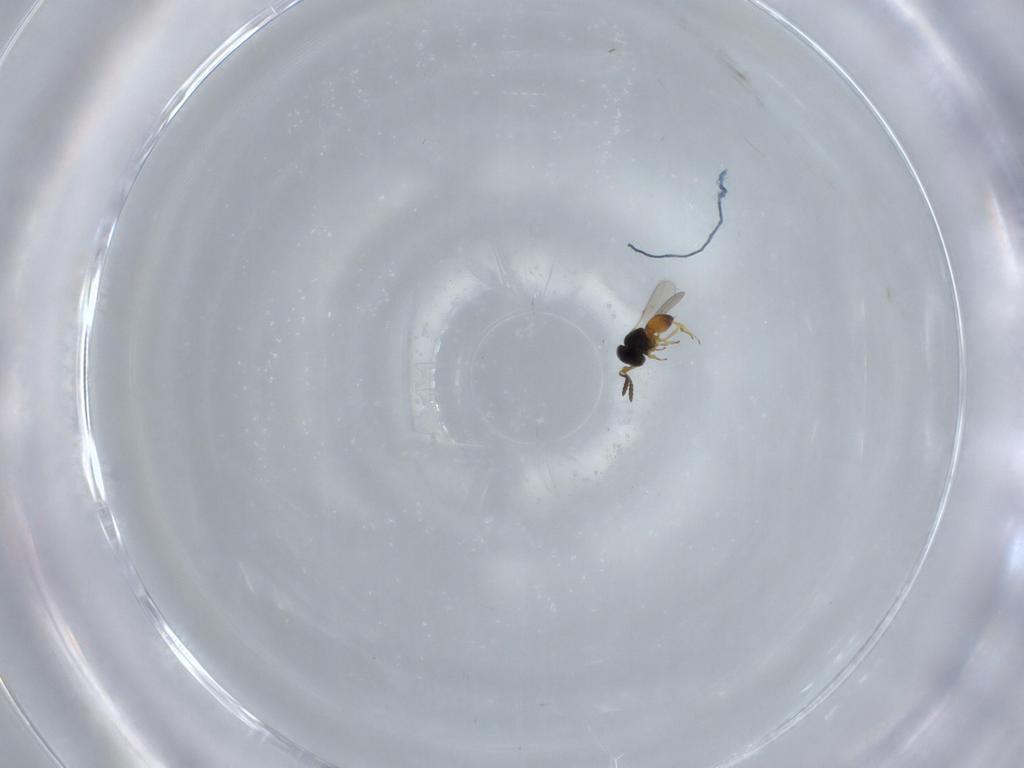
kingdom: Animalia
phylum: Arthropoda
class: Insecta
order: Hymenoptera
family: Scelionidae
